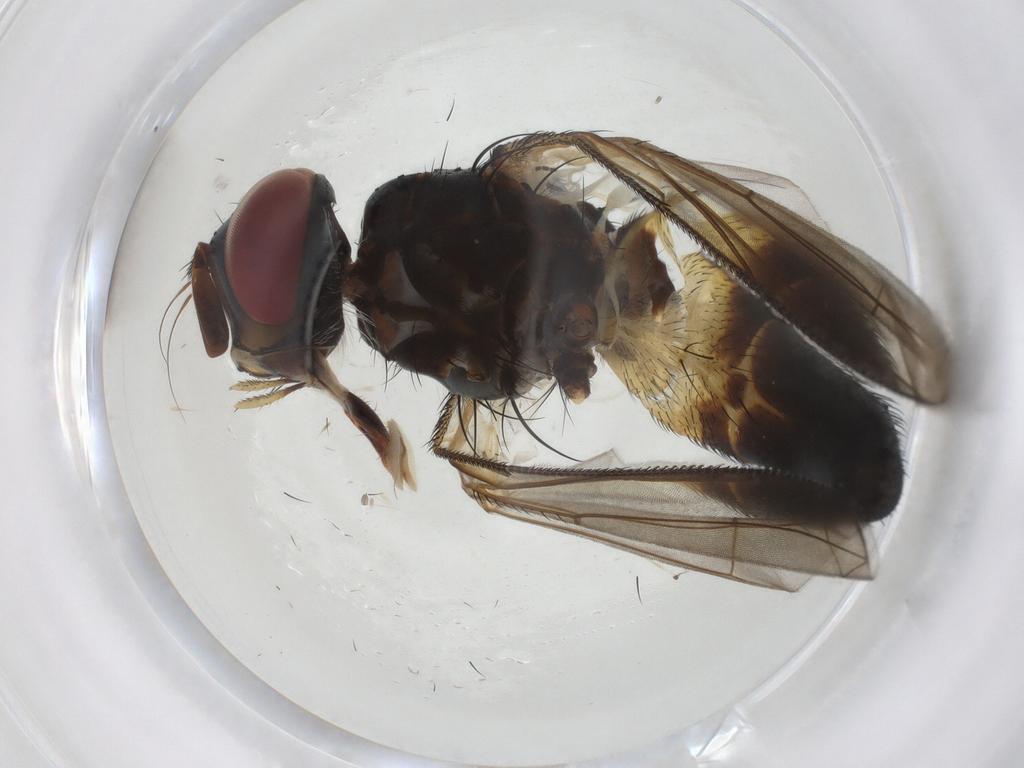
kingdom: Animalia
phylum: Arthropoda
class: Insecta
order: Diptera
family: Tachinidae
